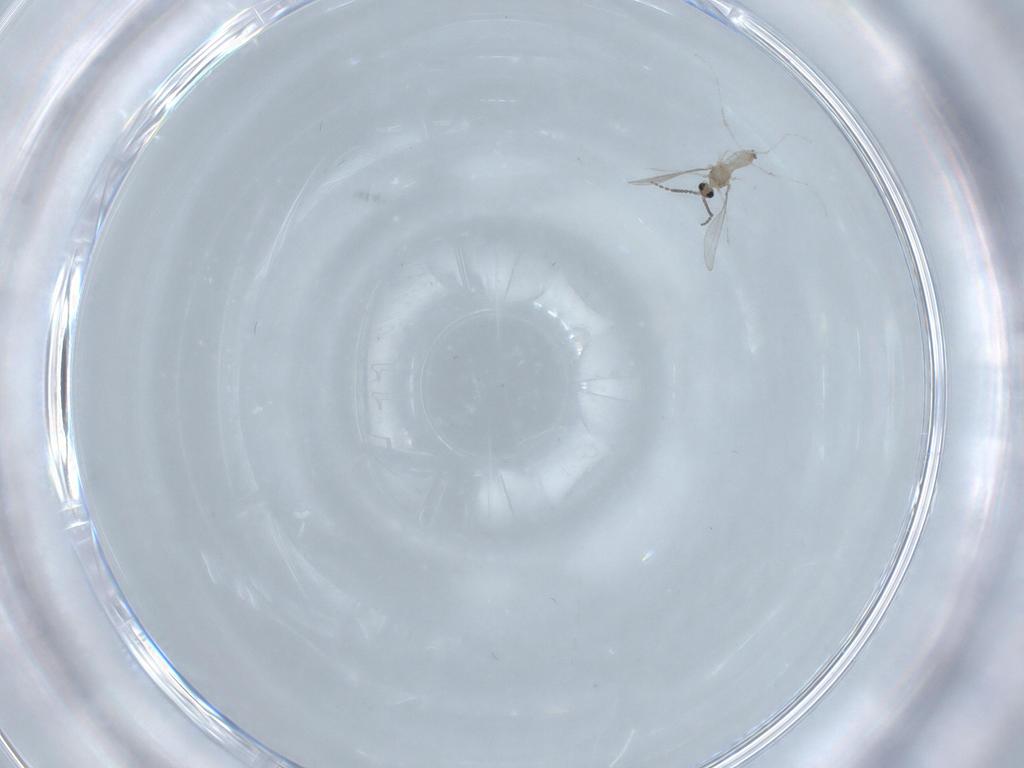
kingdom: Animalia
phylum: Arthropoda
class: Insecta
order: Diptera
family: Cecidomyiidae
